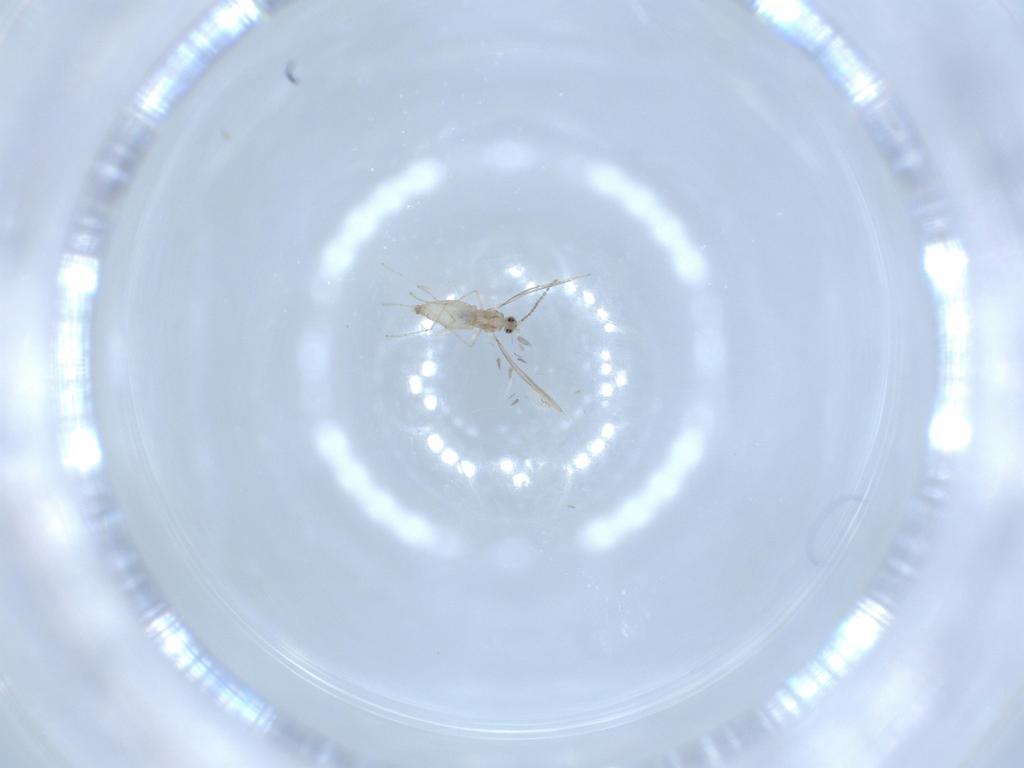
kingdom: Animalia
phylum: Arthropoda
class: Insecta
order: Diptera
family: Cecidomyiidae
